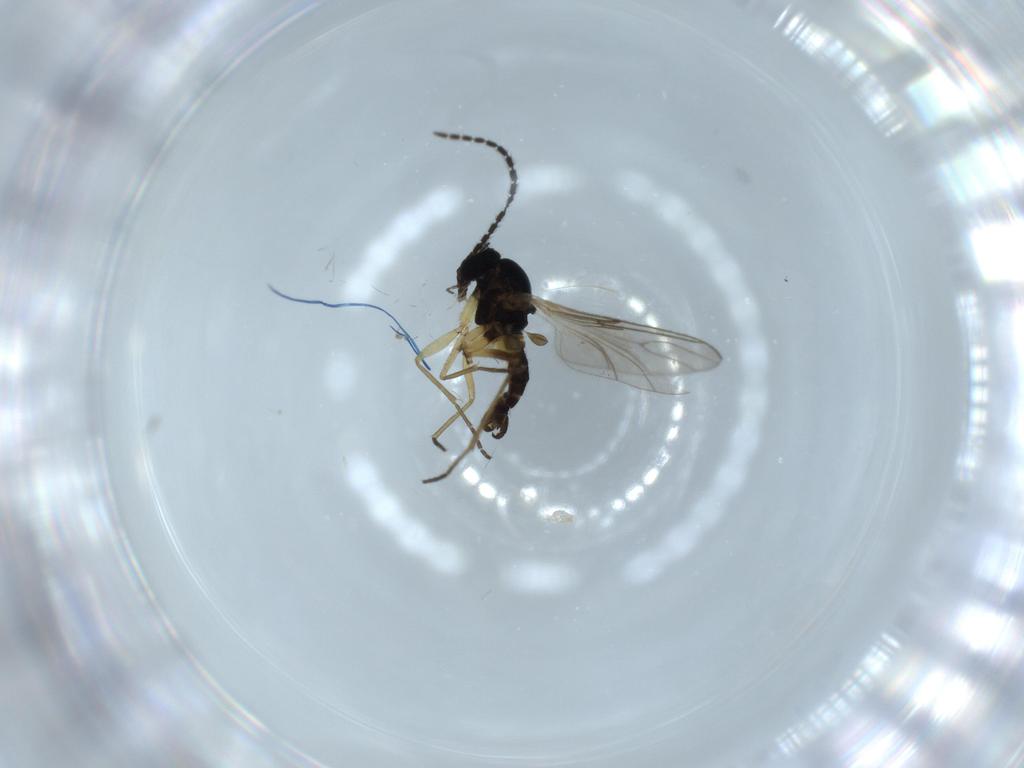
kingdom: Animalia
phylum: Arthropoda
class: Insecta
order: Diptera
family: Sciaridae
